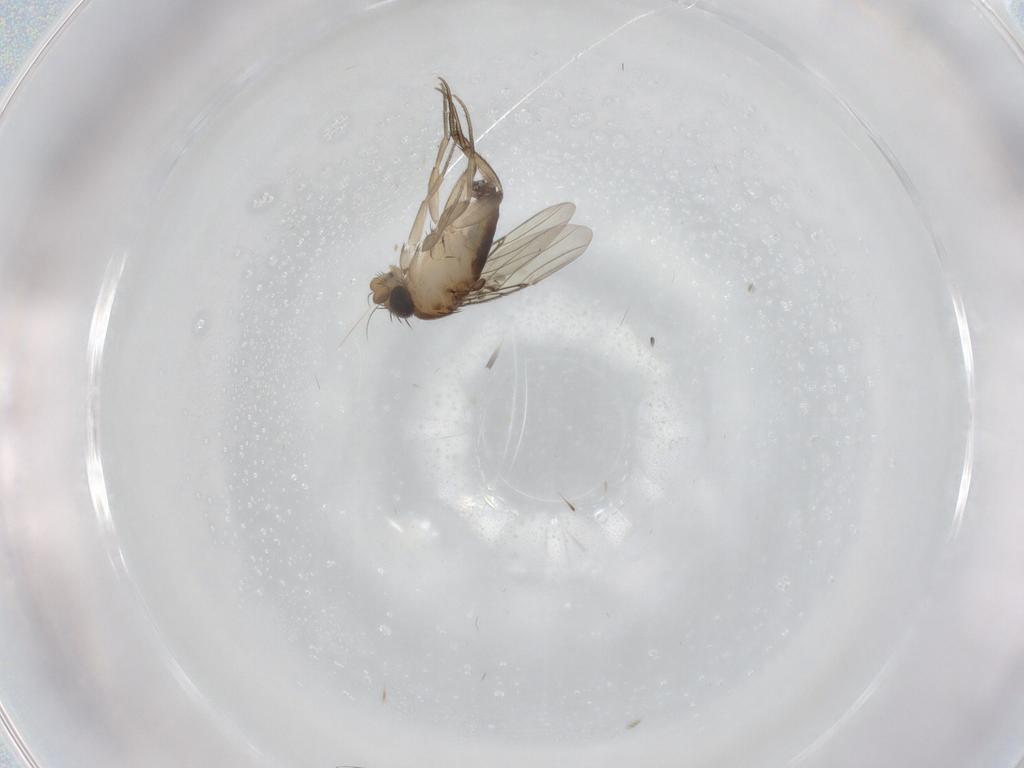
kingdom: Animalia
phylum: Arthropoda
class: Insecta
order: Diptera
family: Phoridae
